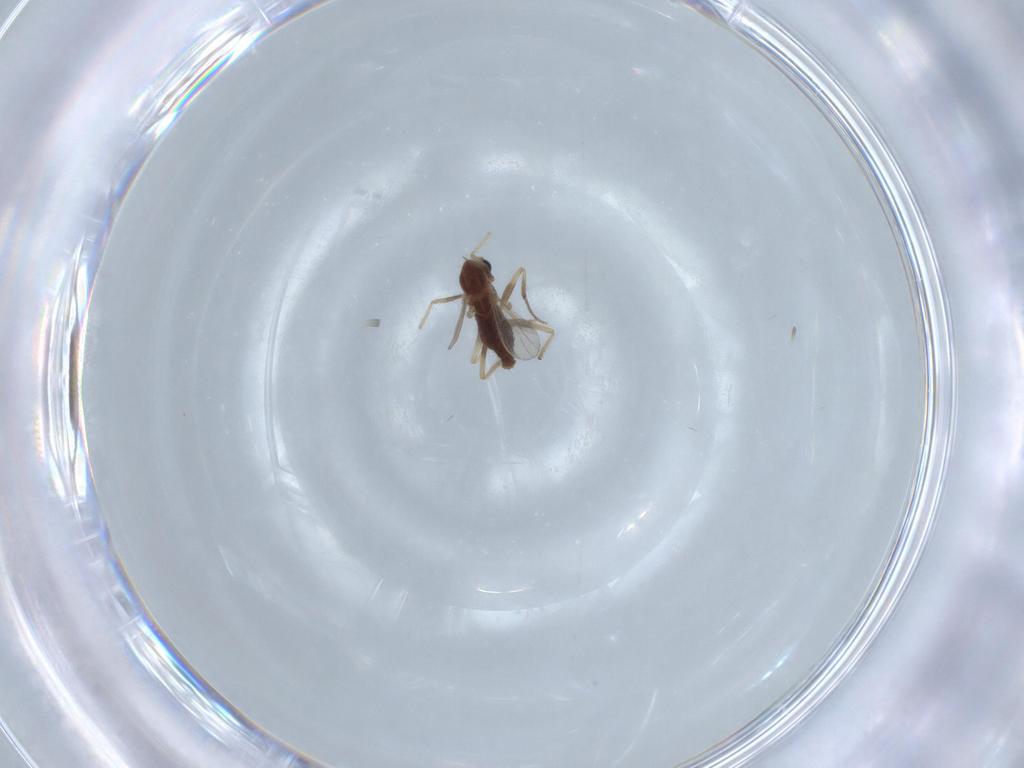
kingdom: Animalia
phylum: Arthropoda
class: Insecta
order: Diptera
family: Chironomidae
